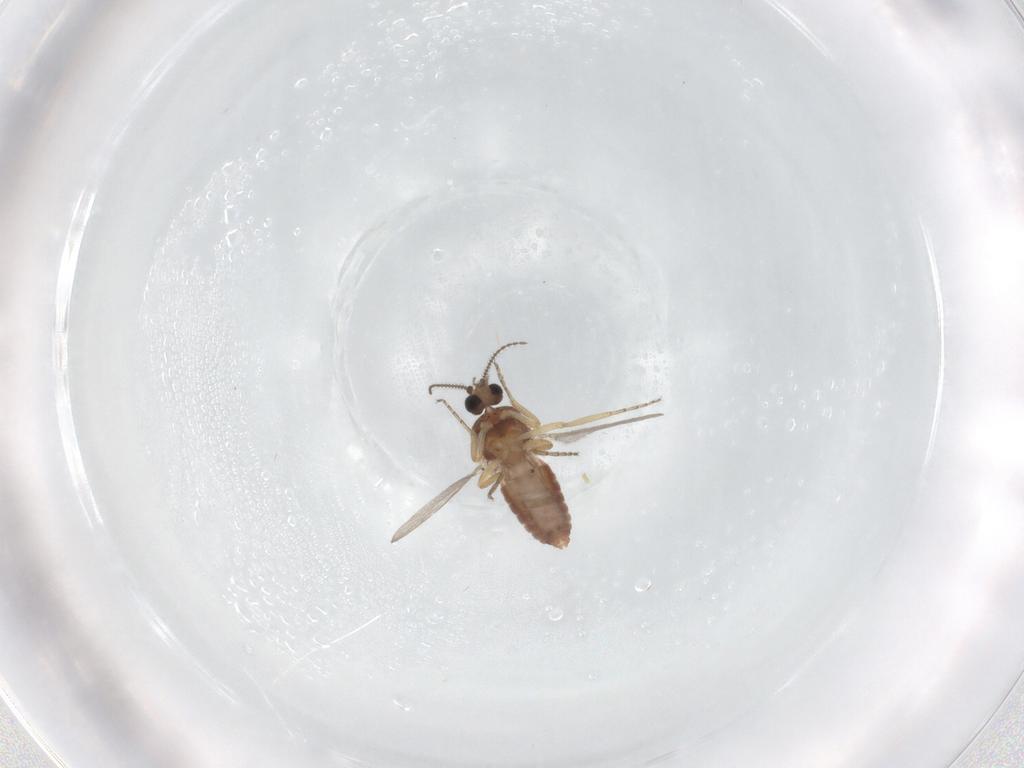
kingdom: Animalia
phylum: Arthropoda
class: Insecta
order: Diptera
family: Ceratopogonidae
